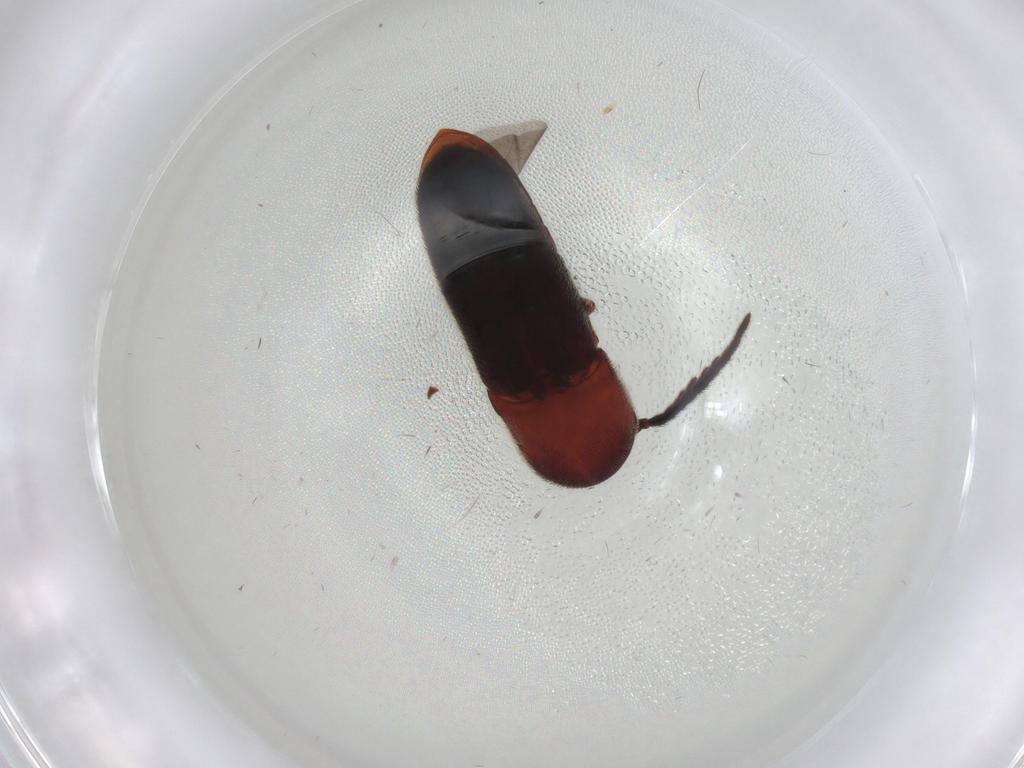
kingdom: Animalia
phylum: Arthropoda
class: Insecta
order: Coleoptera
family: Eucnemidae
